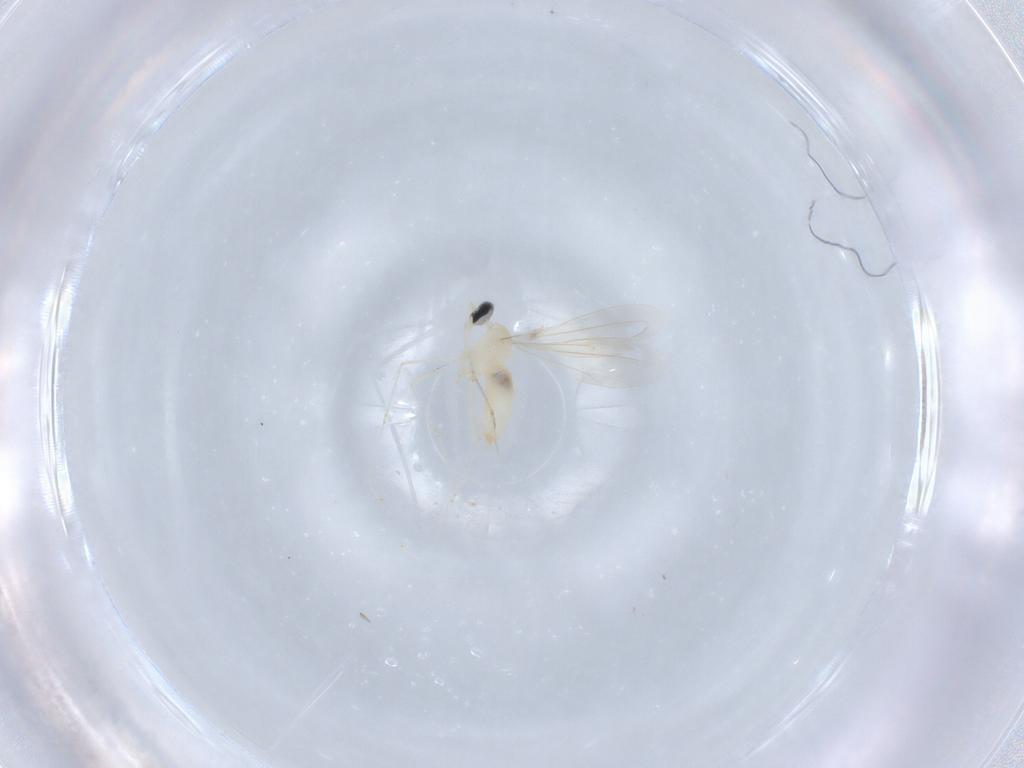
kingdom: Animalia
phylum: Arthropoda
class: Insecta
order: Diptera
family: Cecidomyiidae
